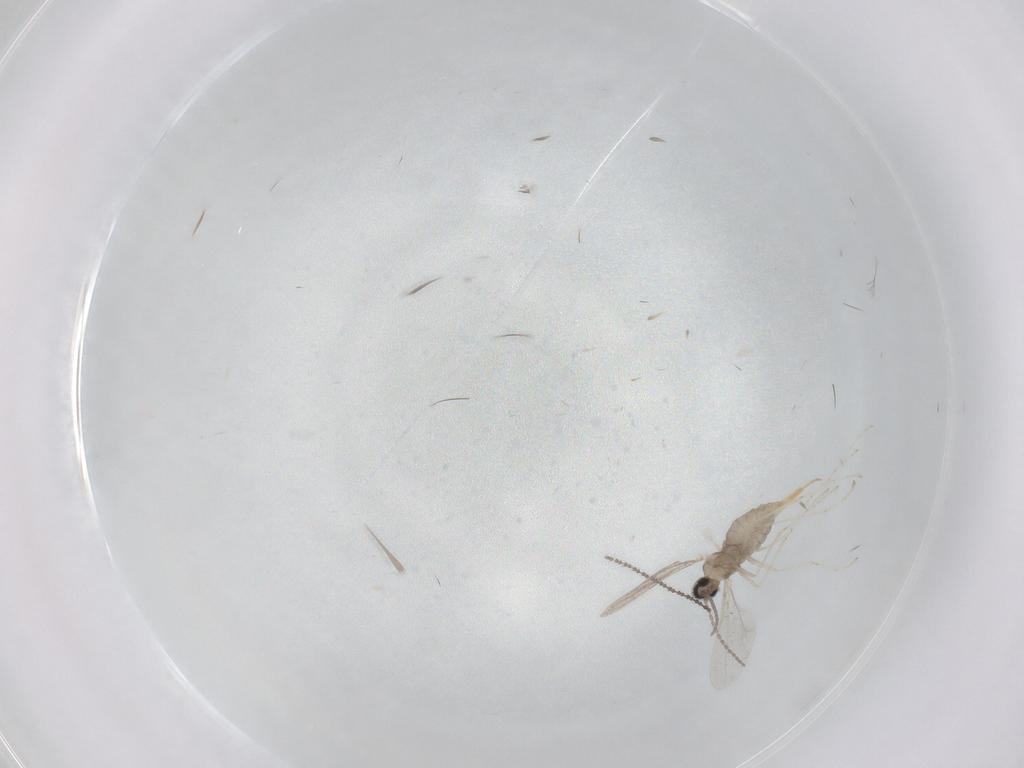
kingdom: Animalia
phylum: Arthropoda
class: Insecta
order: Diptera
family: Cecidomyiidae
